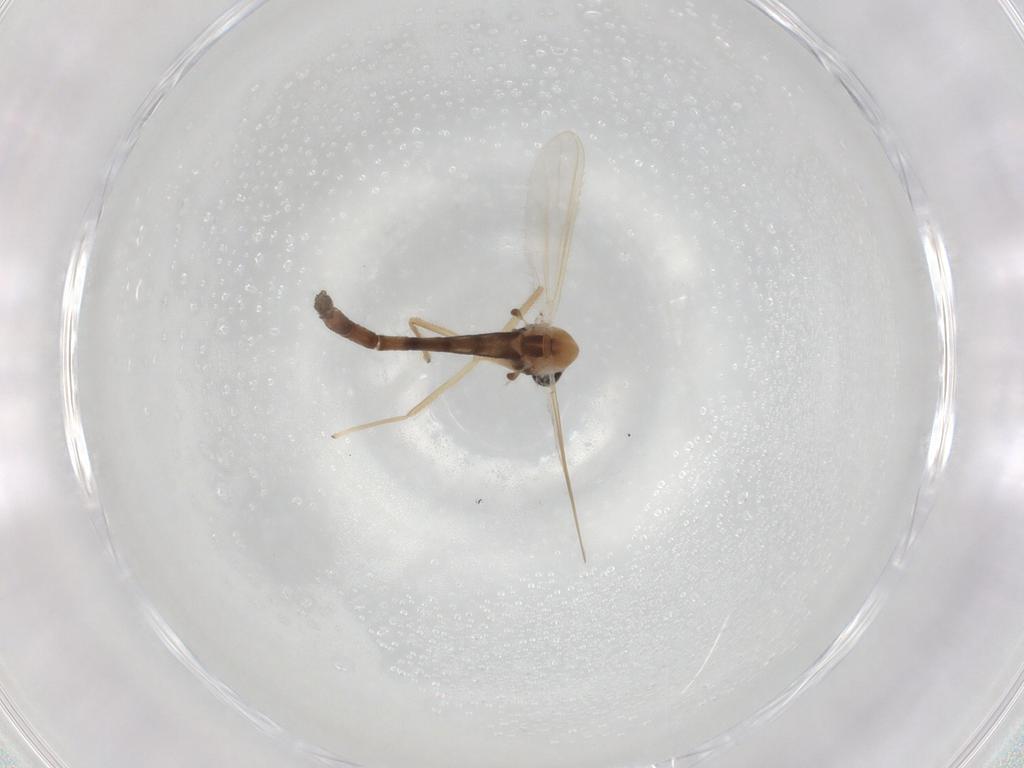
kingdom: Animalia
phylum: Arthropoda
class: Insecta
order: Diptera
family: Chironomidae
